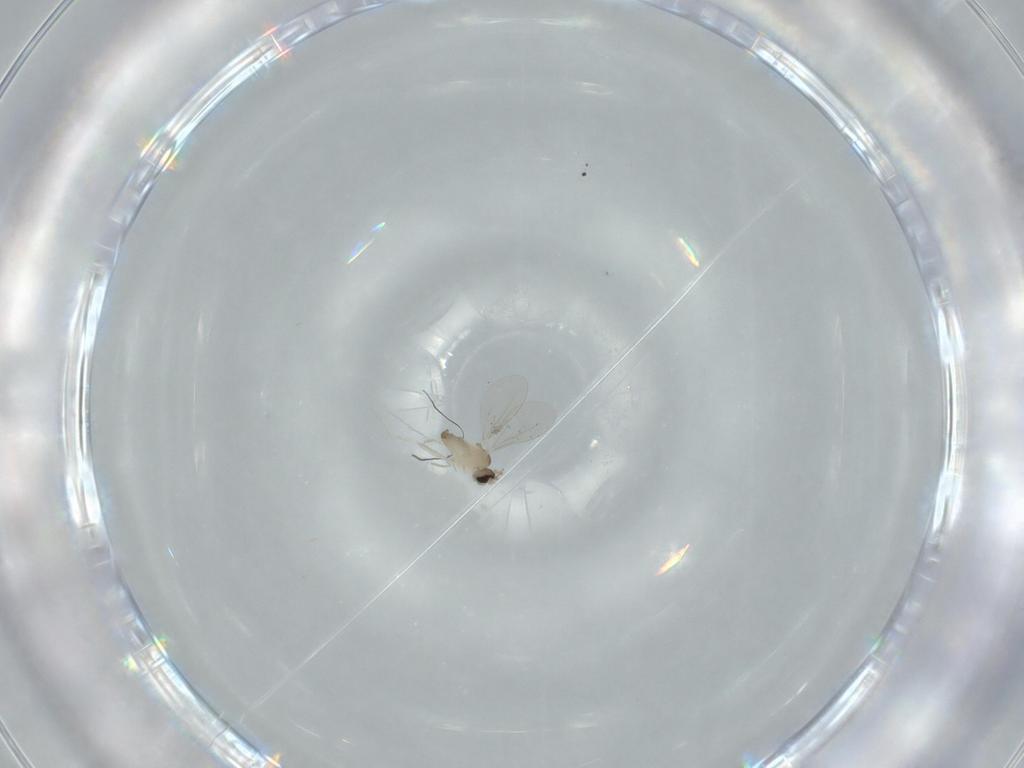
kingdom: Animalia
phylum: Arthropoda
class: Insecta
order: Diptera
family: Cecidomyiidae
